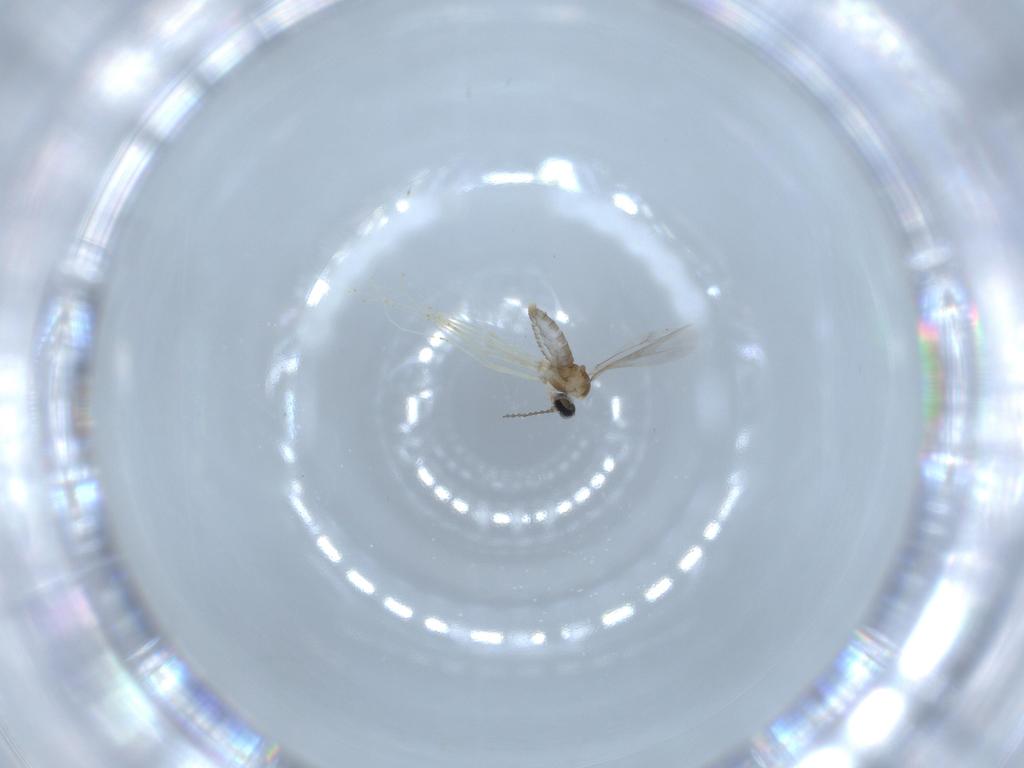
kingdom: Animalia
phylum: Arthropoda
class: Insecta
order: Diptera
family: Cecidomyiidae
